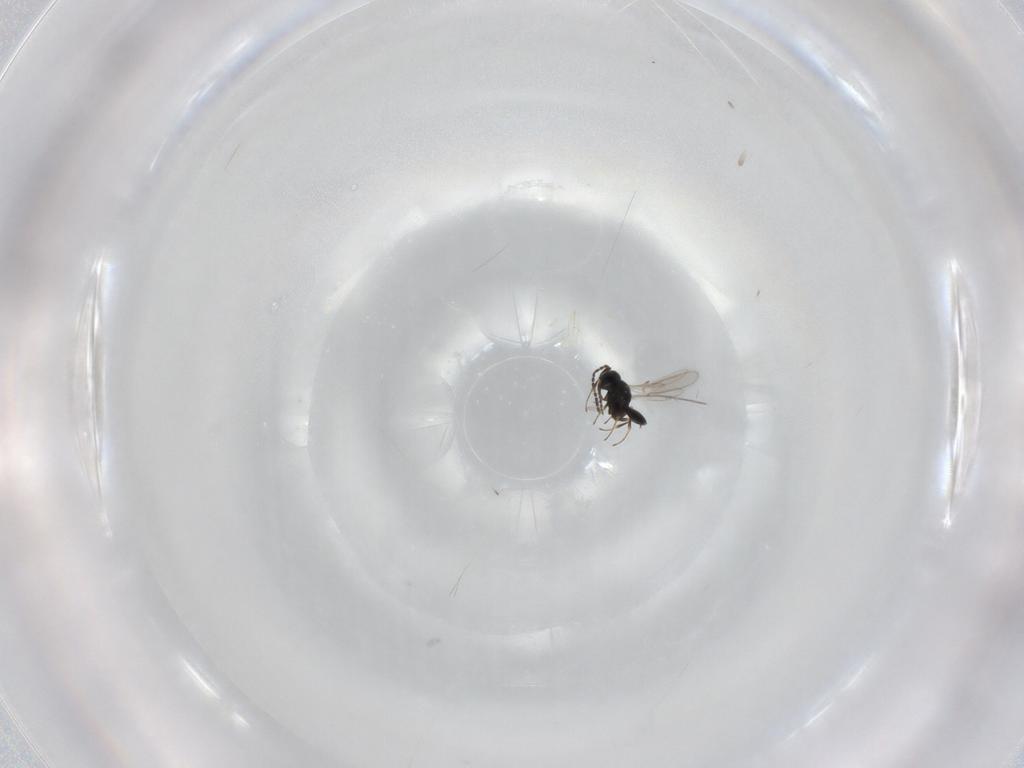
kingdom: Animalia
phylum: Arthropoda
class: Insecta
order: Hymenoptera
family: Scelionidae
